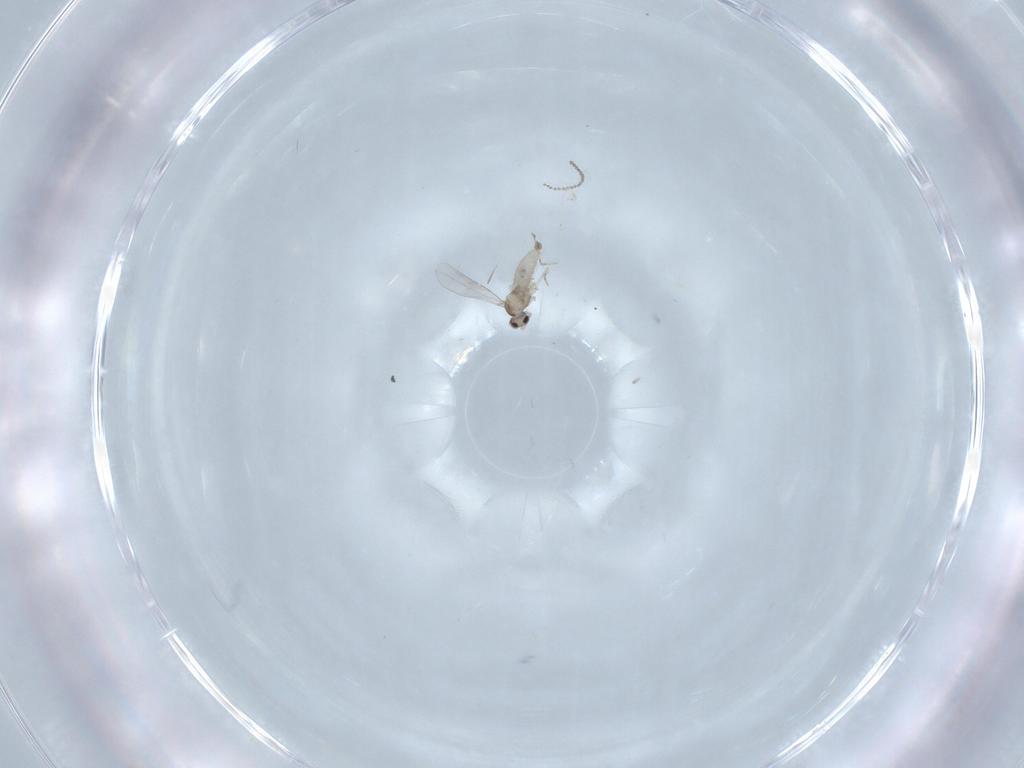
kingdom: Animalia
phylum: Arthropoda
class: Insecta
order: Diptera
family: Cecidomyiidae
